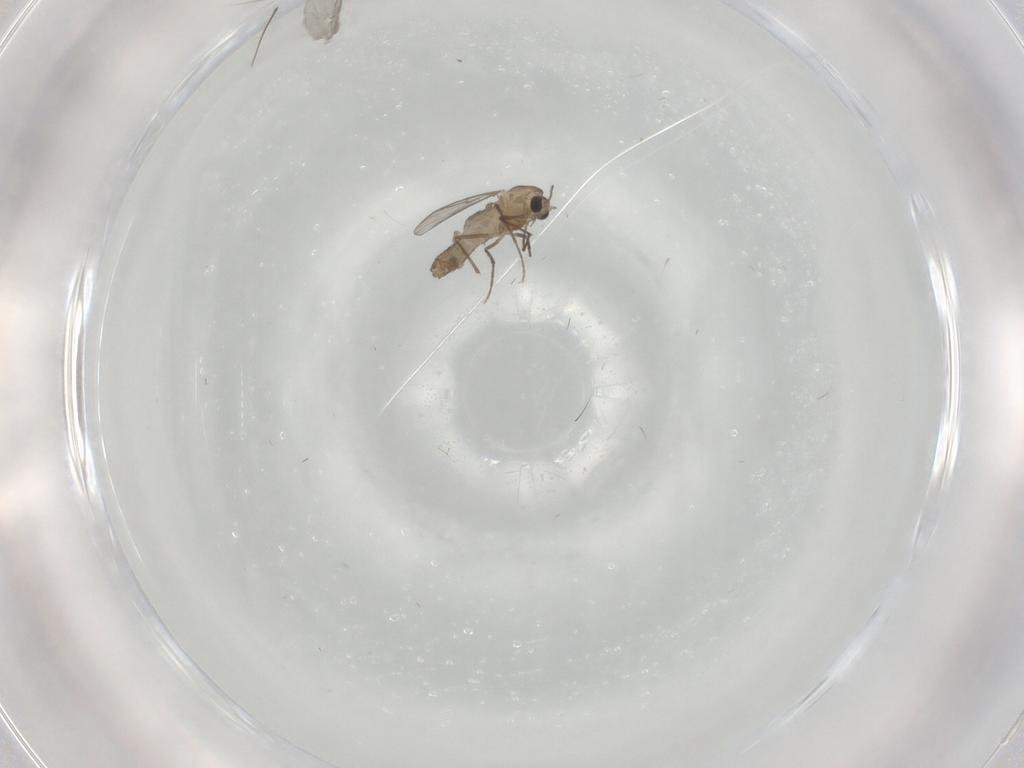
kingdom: Animalia
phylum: Arthropoda
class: Insecta
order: Diptera
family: Chironomidae
